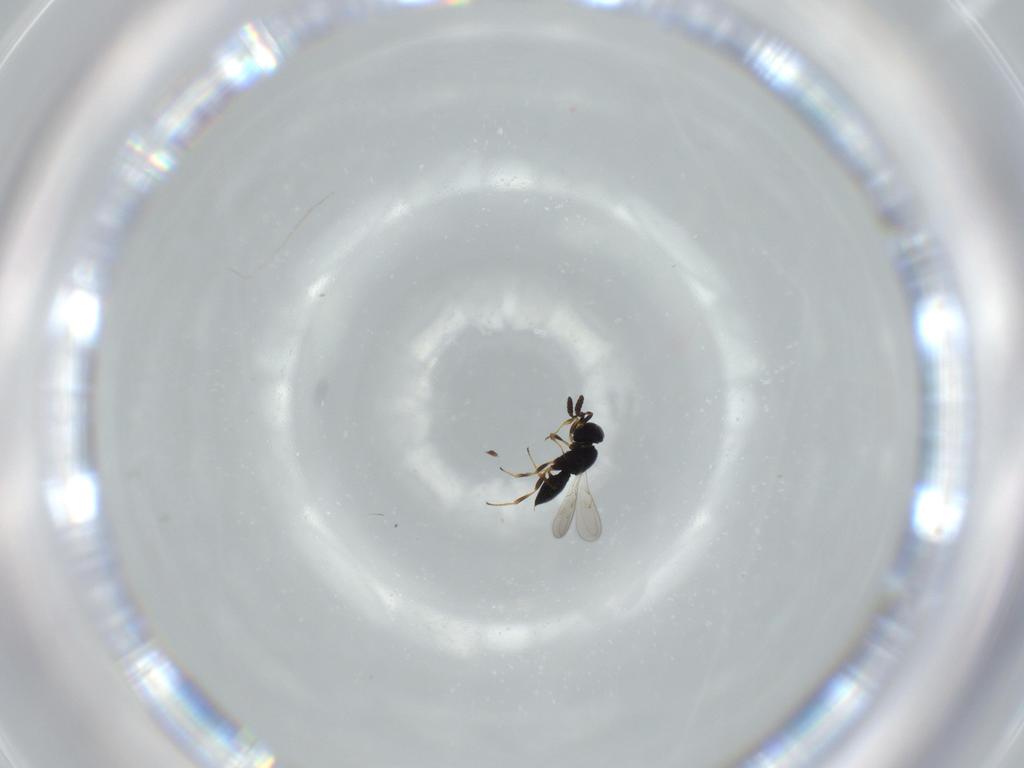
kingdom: Animalia
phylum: Arthropoda
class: Insecta
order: Hymenoptera
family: Scelionidae
